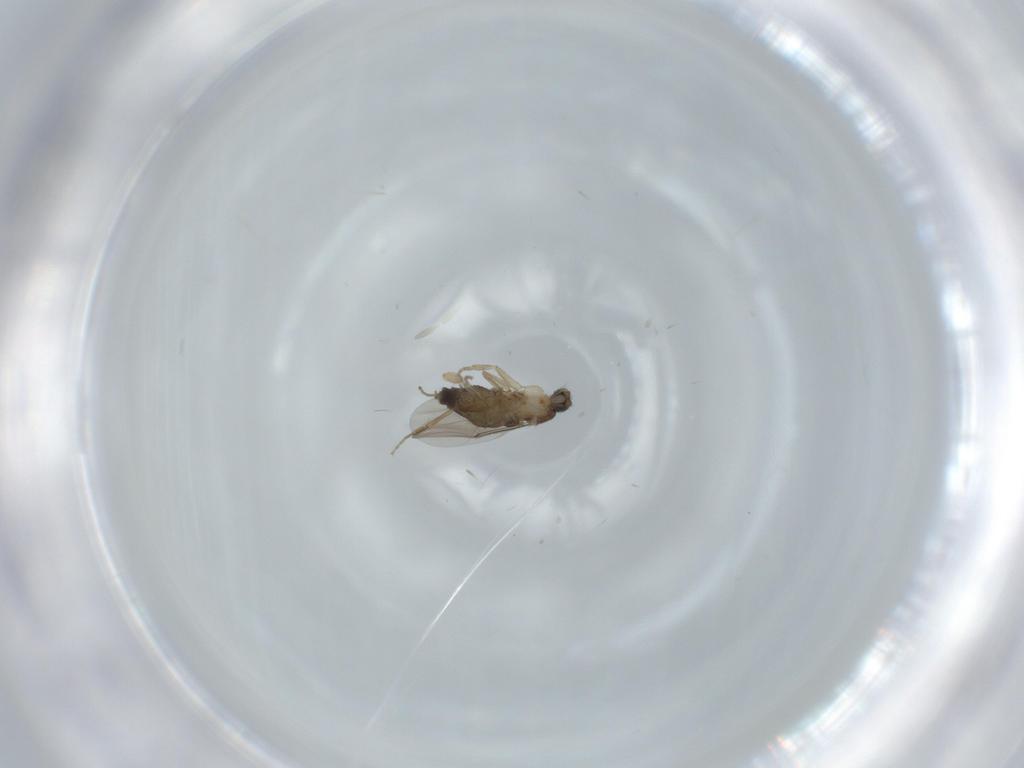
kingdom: Animalia
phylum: Arthropoda
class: Insecta
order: Diptera
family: Phoridae
